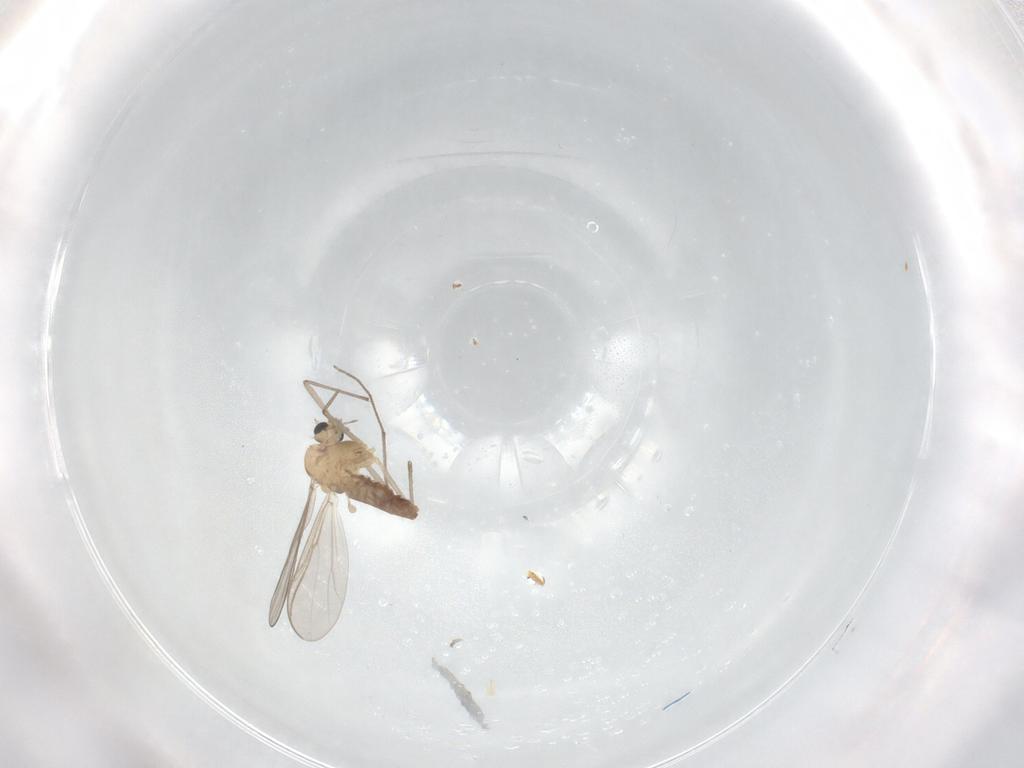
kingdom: Animalia
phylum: Arthropoda
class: Insecta
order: Diptera
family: Chironomidae
